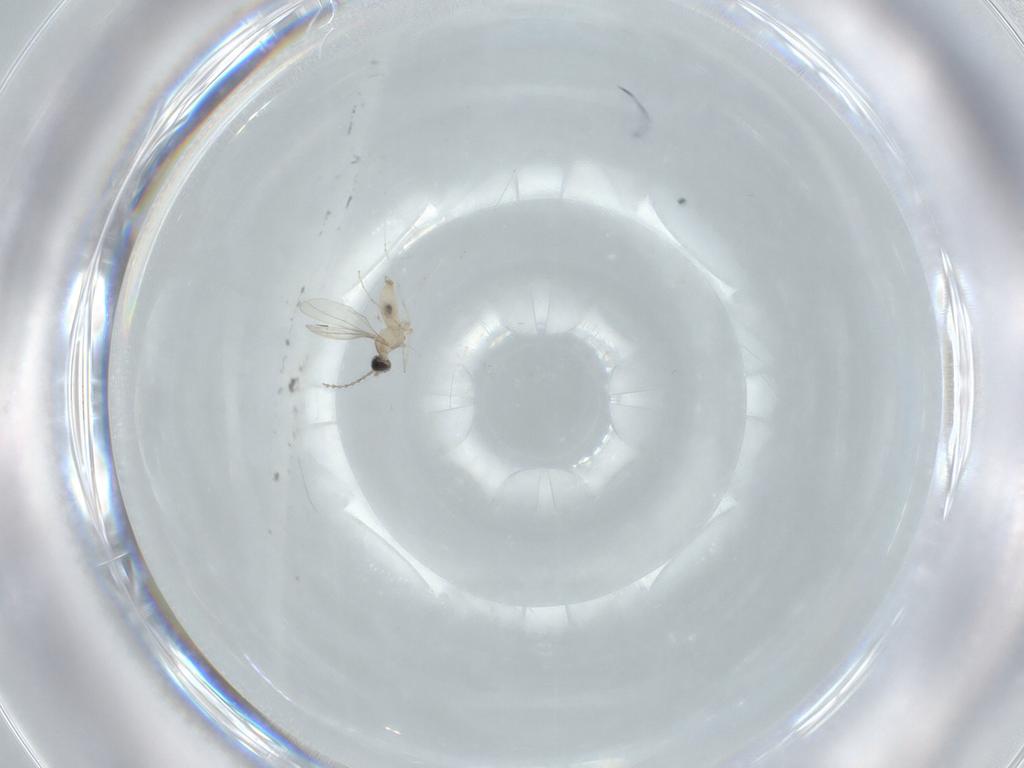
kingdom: Animalia
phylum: Arthropoda
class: Insecta
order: Diptera
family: Cecidomyiidae
